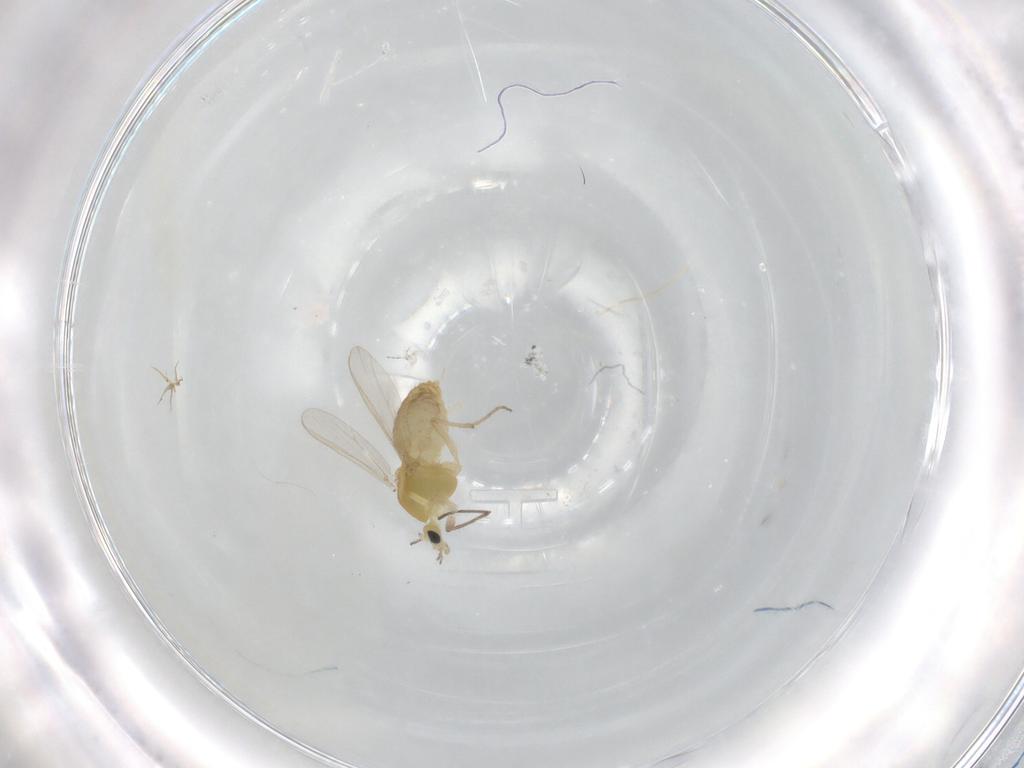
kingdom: Animalia
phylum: Arthropoda
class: Insecta
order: Diptera
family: Chironomidae
